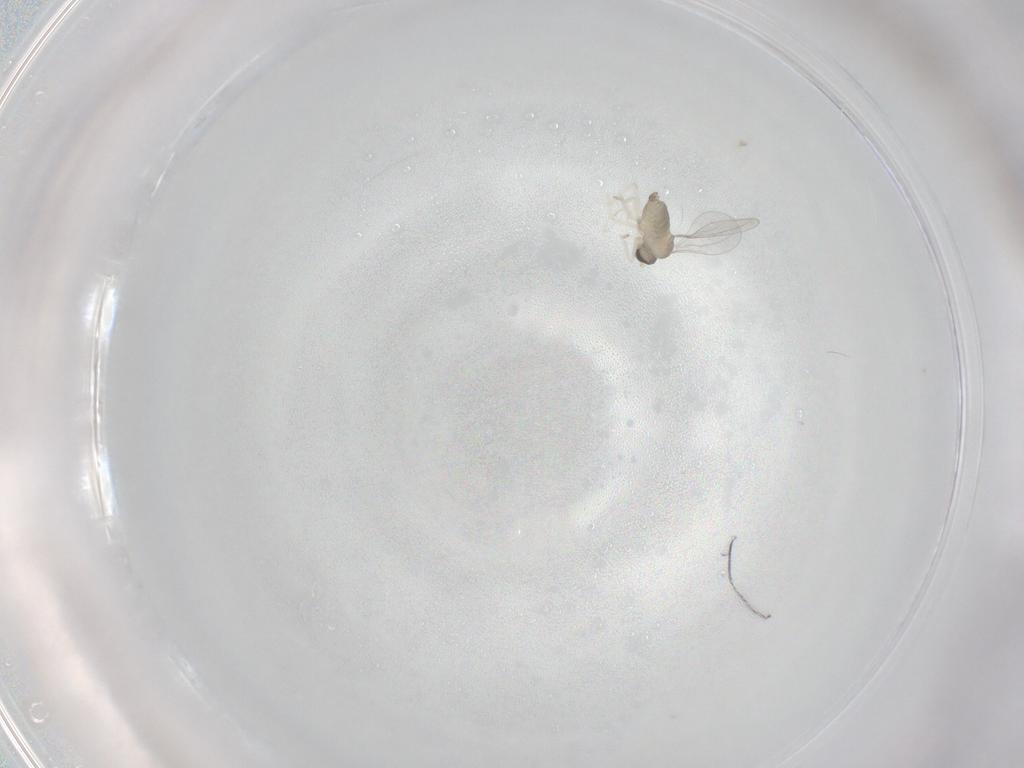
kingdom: Animalia
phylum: Arthropoda
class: Insecta
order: Diptera
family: Cecidomyiidae
